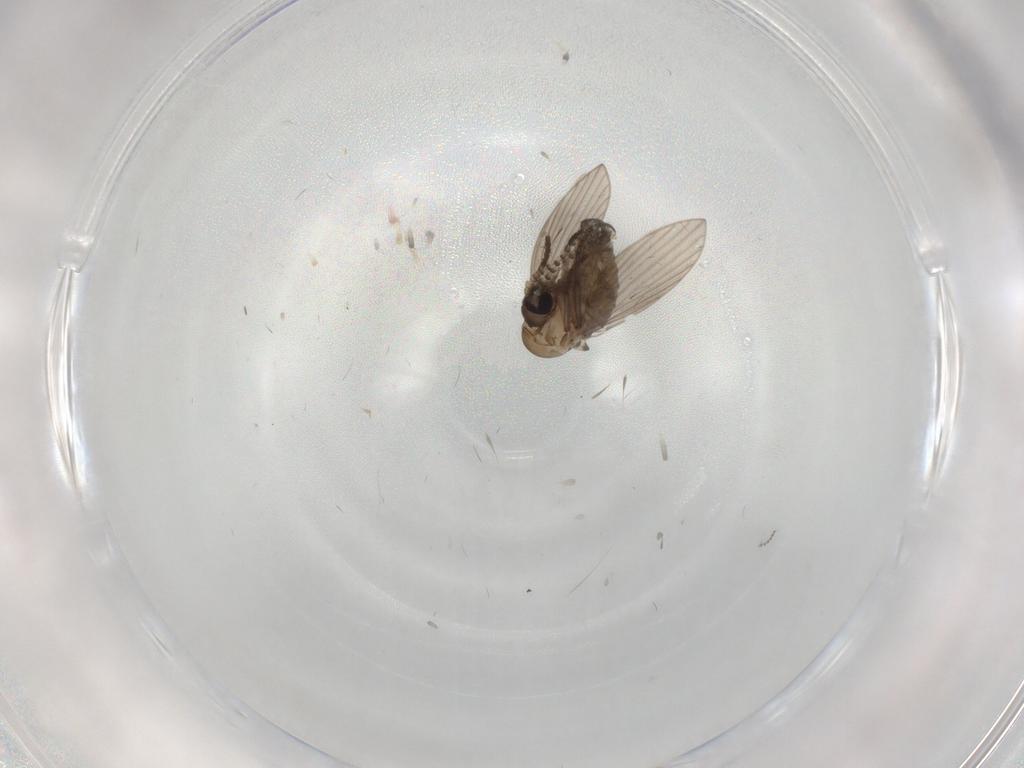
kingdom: Animalia
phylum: Arthropoda
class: Insecta
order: Diptera
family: Psychodidae
